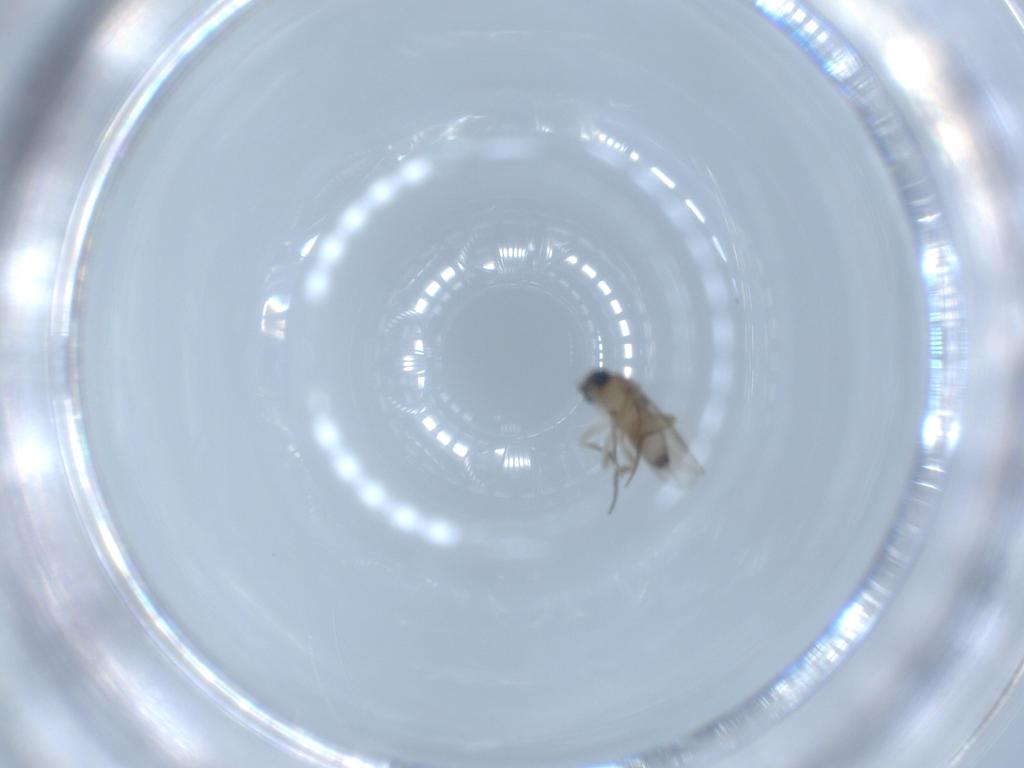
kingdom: Animalia
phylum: Arthropoda
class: Insecta
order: Diptera
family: Phoridae
